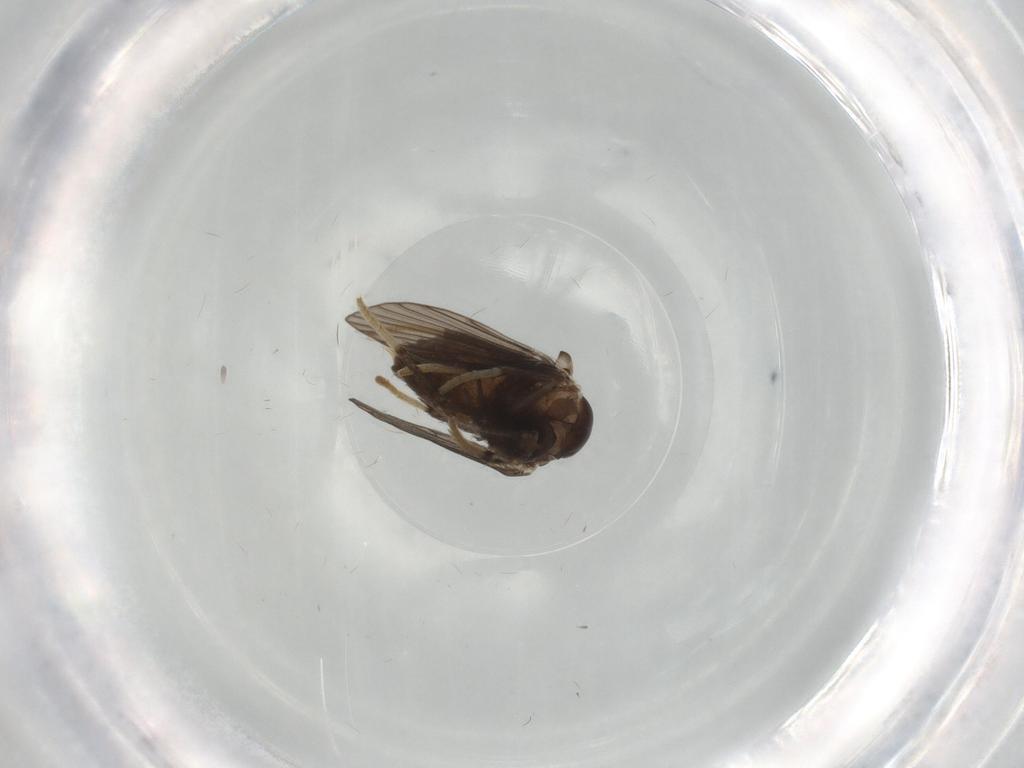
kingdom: Animalia
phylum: Arthropoda
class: Insecta
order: Diptera
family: Psychodidae
